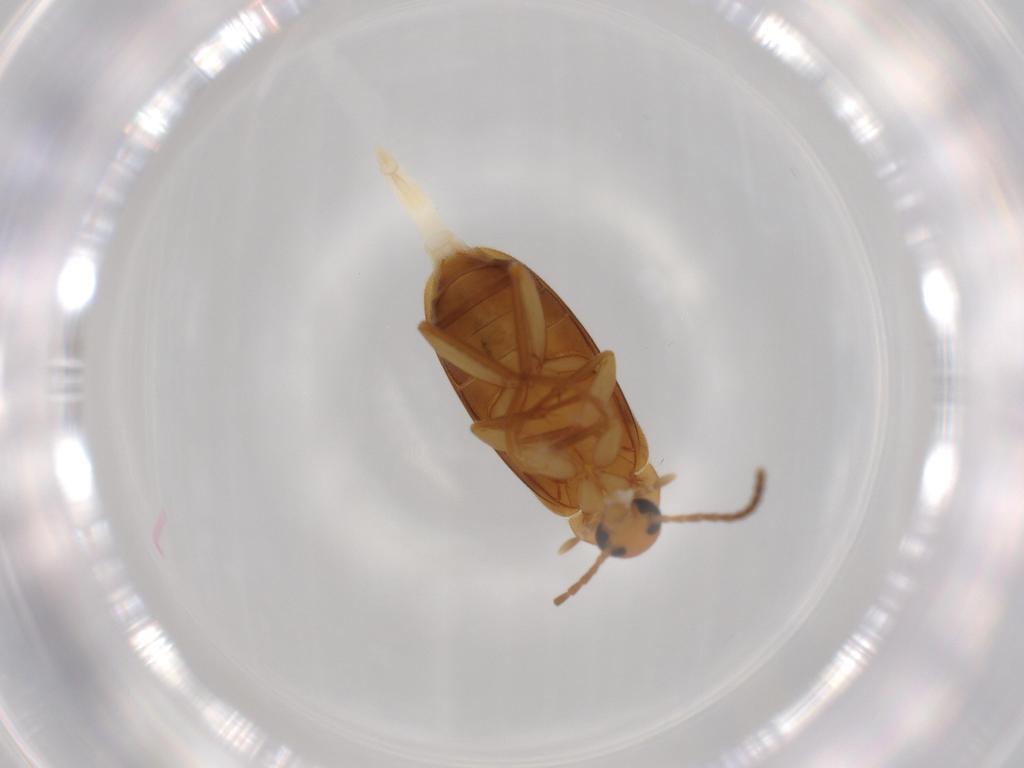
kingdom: Animalia
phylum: Arthropoda
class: Insecta
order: Coleoptera
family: Scraptiidae
